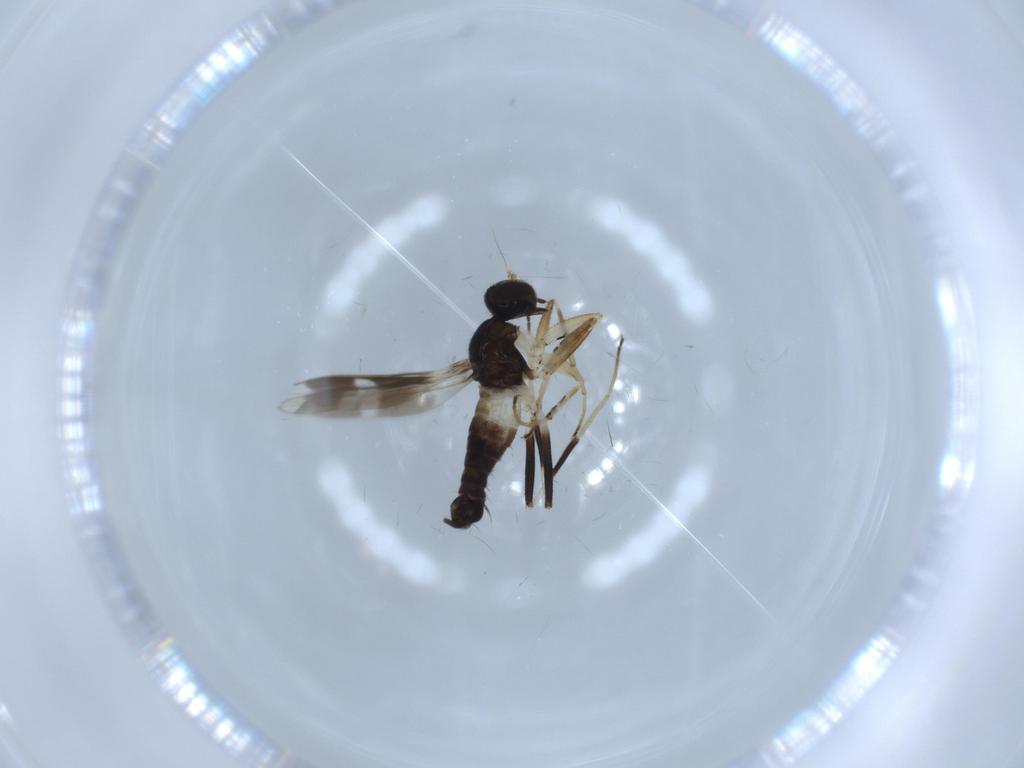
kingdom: Animalia
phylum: Arthropoda
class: Insecta
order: Diptera
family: Hybotidae
